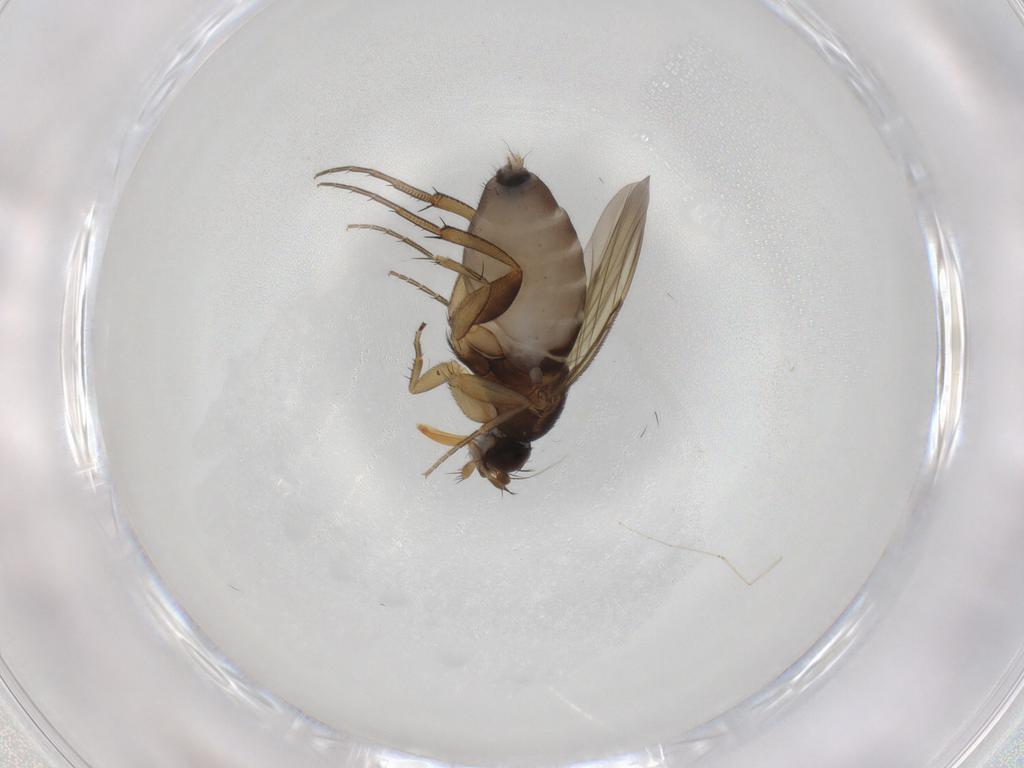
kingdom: Animalia
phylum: Arthropoda
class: Insecta
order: Diptera
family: Phoridae
